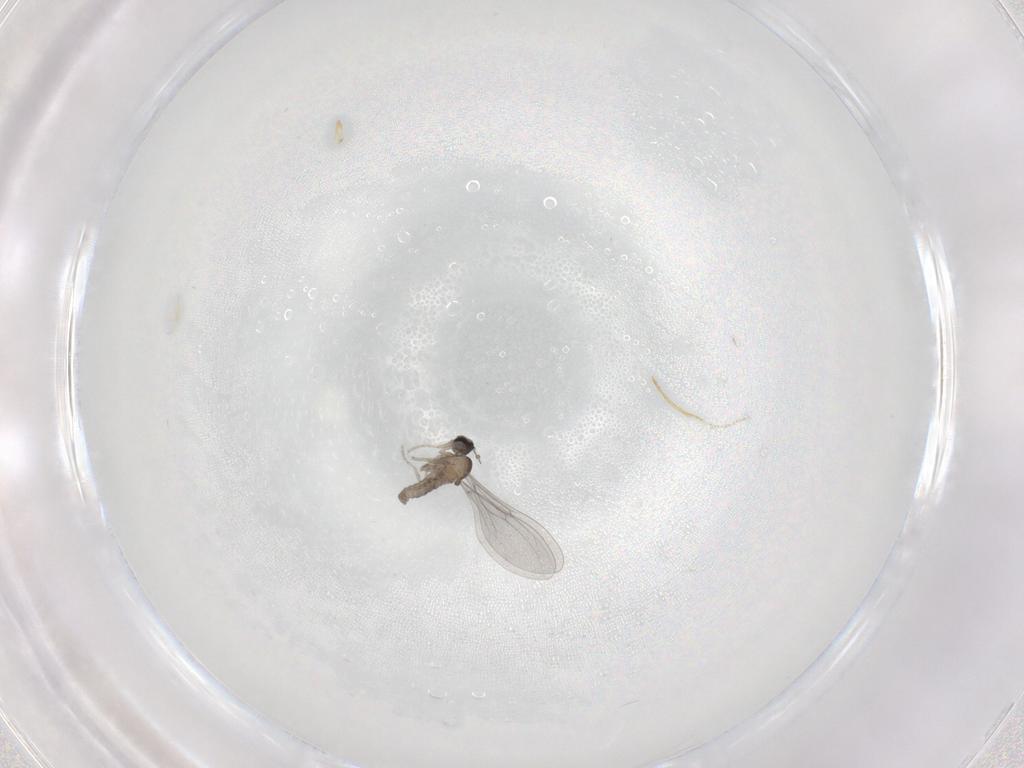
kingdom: Animalia
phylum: Arthropoda
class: Insecta
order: Diptera
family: Cecidomyiidae
